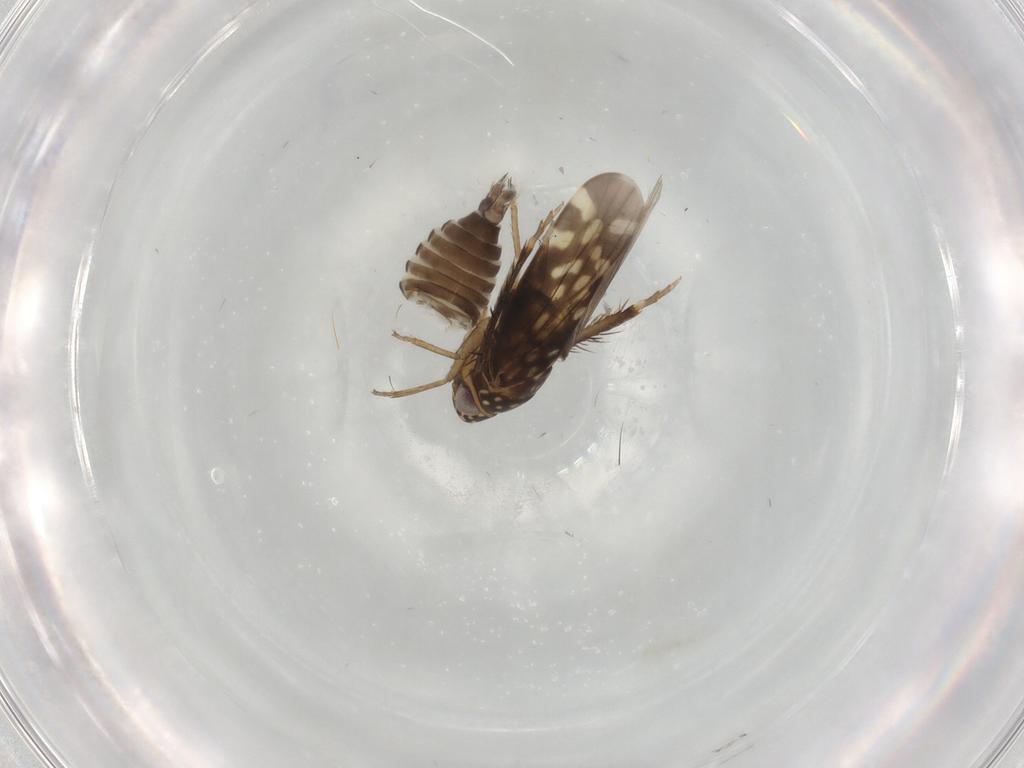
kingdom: Animalia
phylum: Arthropoda
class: Insecta
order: Hemiptera
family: Cicadellidae
